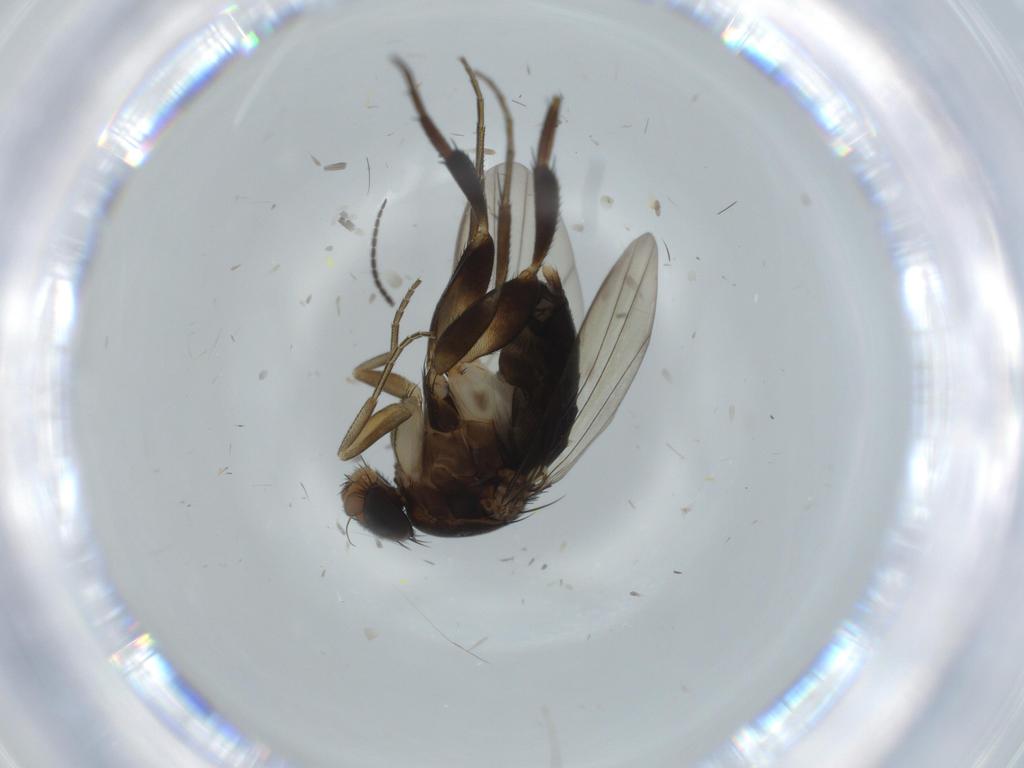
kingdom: Animalia
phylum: Arthropoda
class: Insecta
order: Diptera
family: Phoridae
